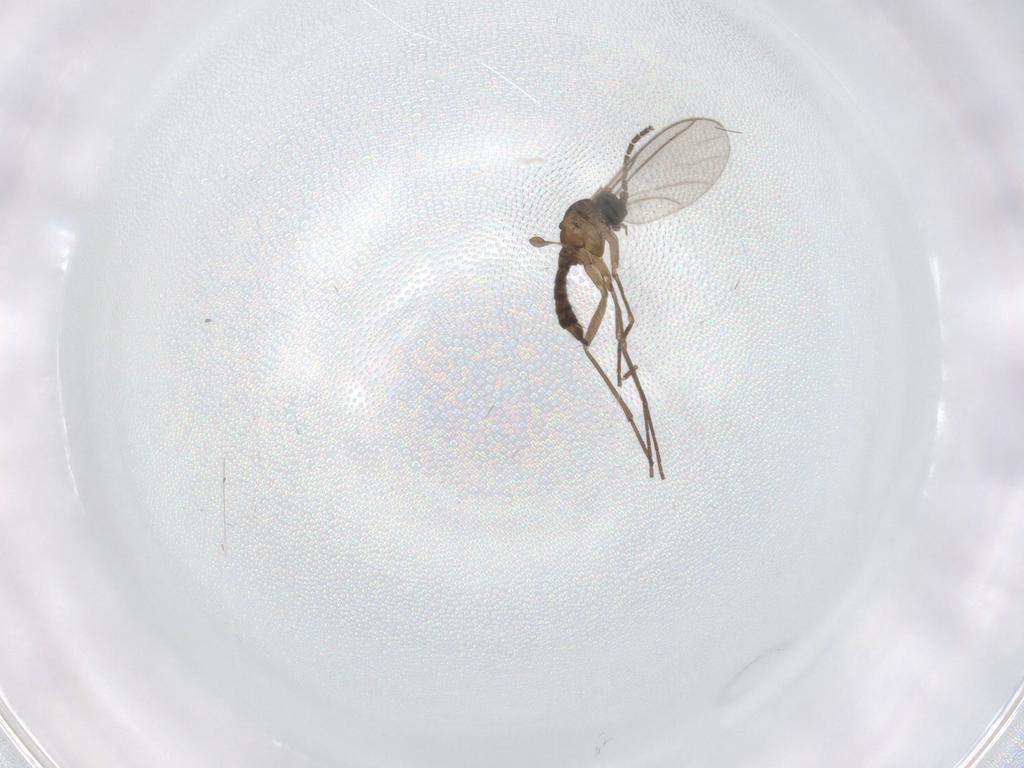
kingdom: Animalia
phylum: Arthropoda
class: Insecta
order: Diptera
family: Sciaridae
